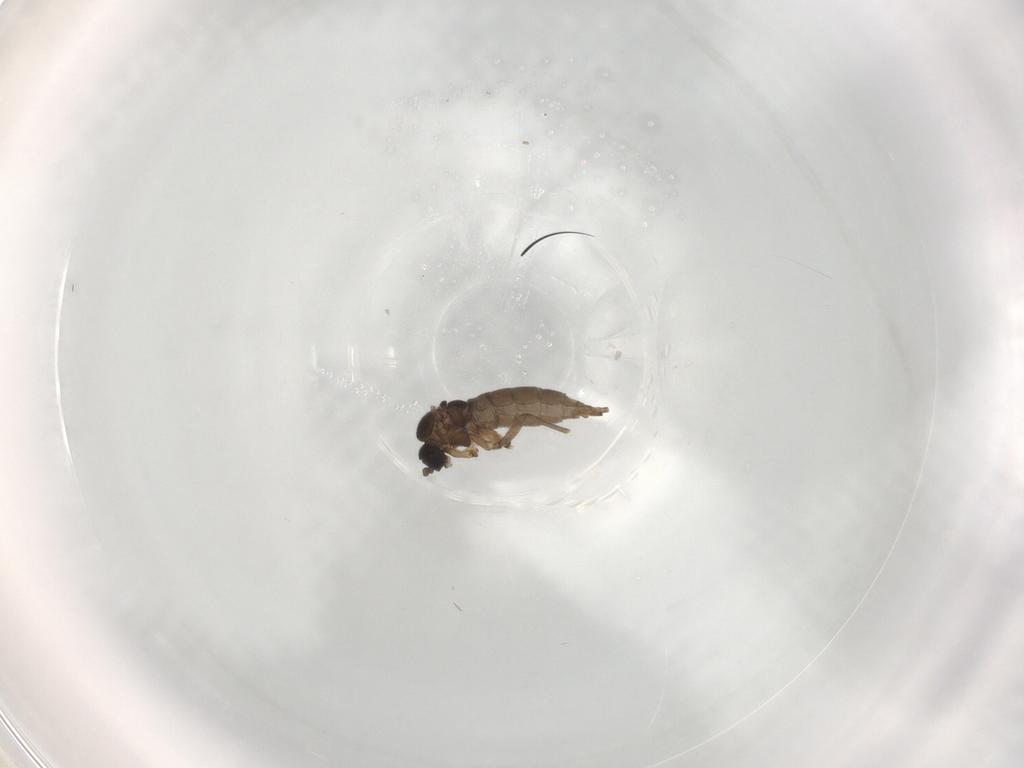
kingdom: Animalia
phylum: Arthropoda
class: Insecta
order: Diptera
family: Sciaridae
